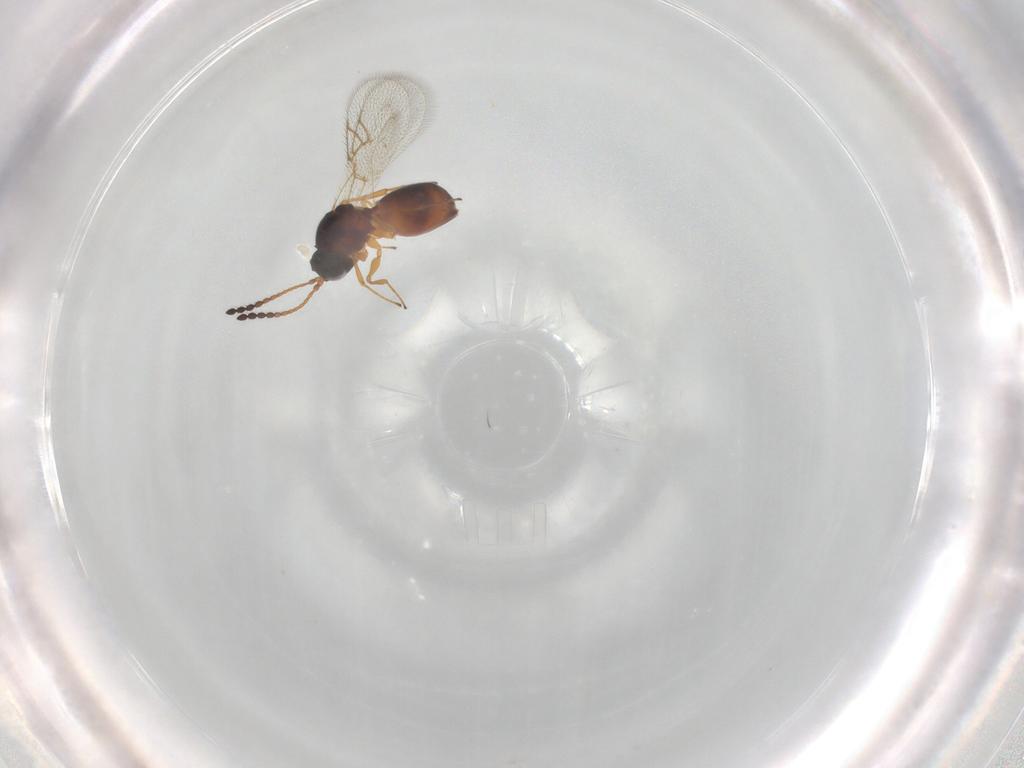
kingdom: Animalia
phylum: Arthropoda
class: Insecta
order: Hymenoptera
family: Figitidae
